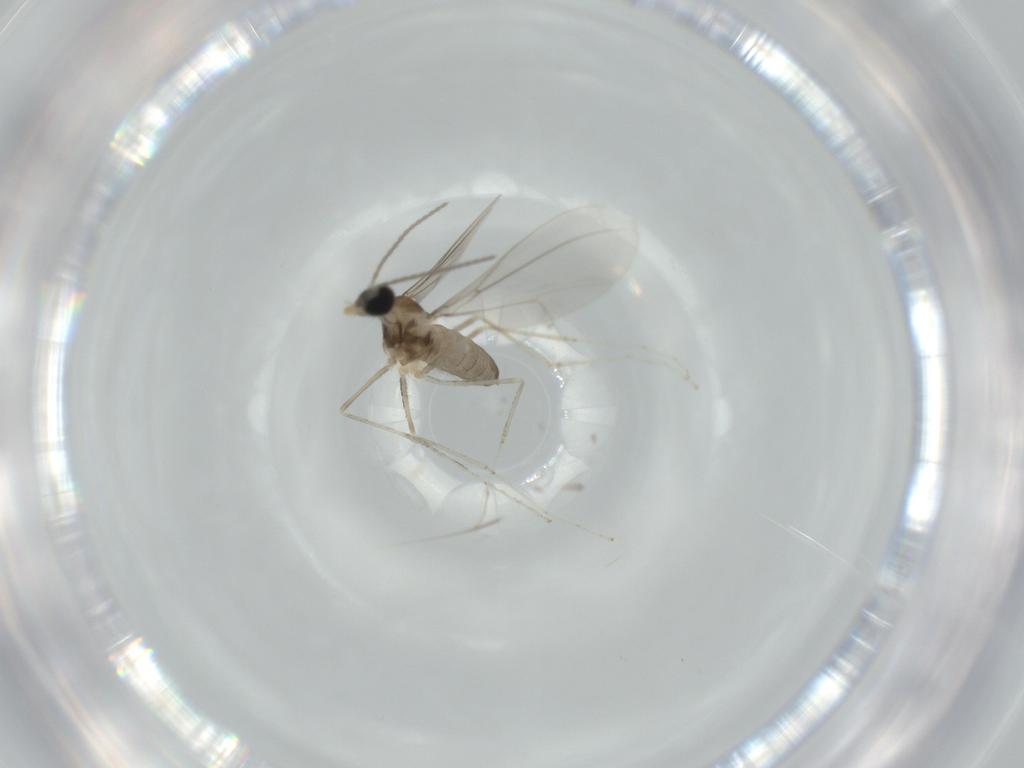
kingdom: Animalia
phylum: Arthropoda
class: Insecta
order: Diptera
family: Cecidomyiidae
